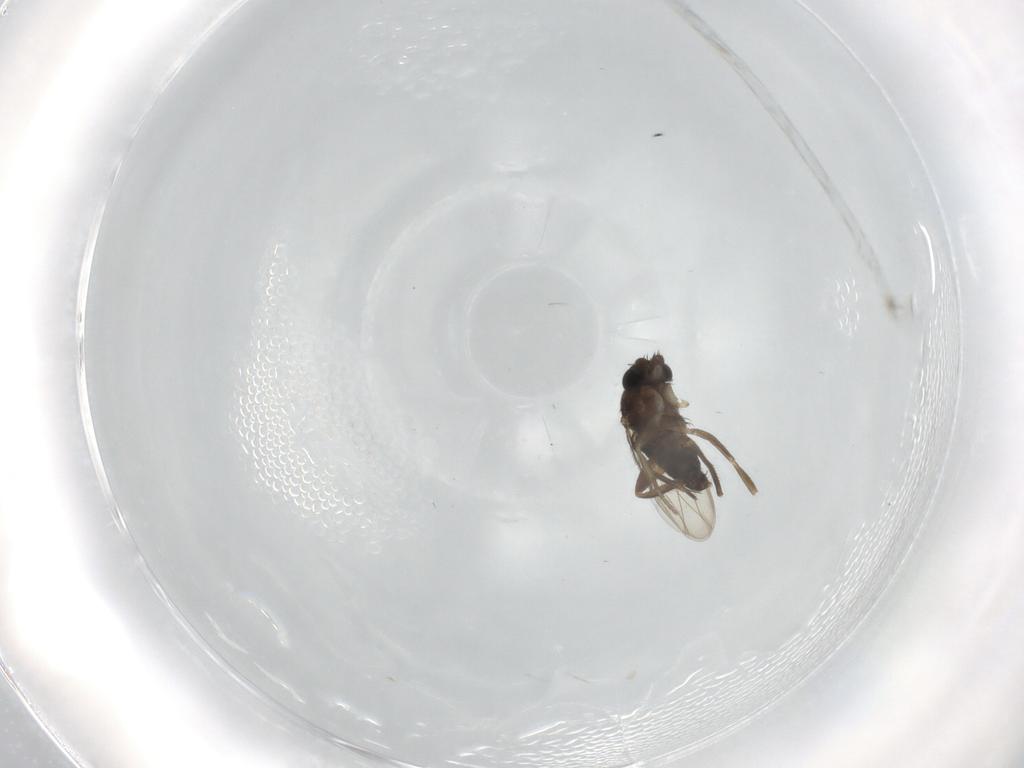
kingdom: Animalia
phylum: Arthropoda
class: Insecta
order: Diptera
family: Phoridae
